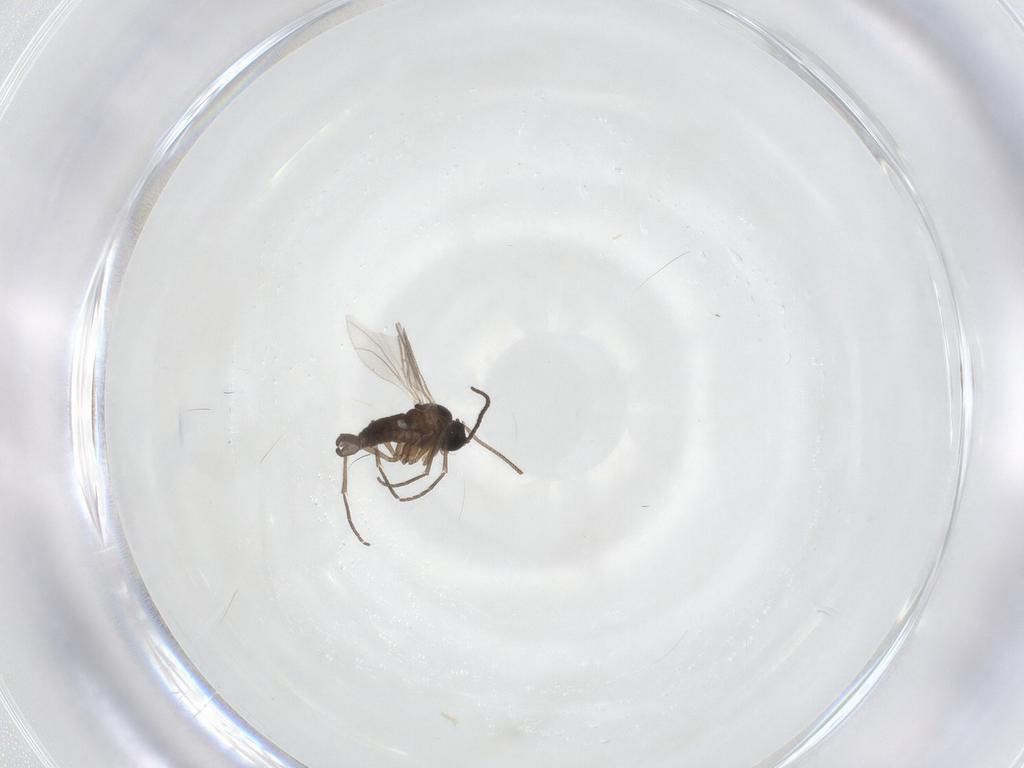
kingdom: Animalia
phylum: Arthropoda
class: Insecta
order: Diptera
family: Sciaridae
